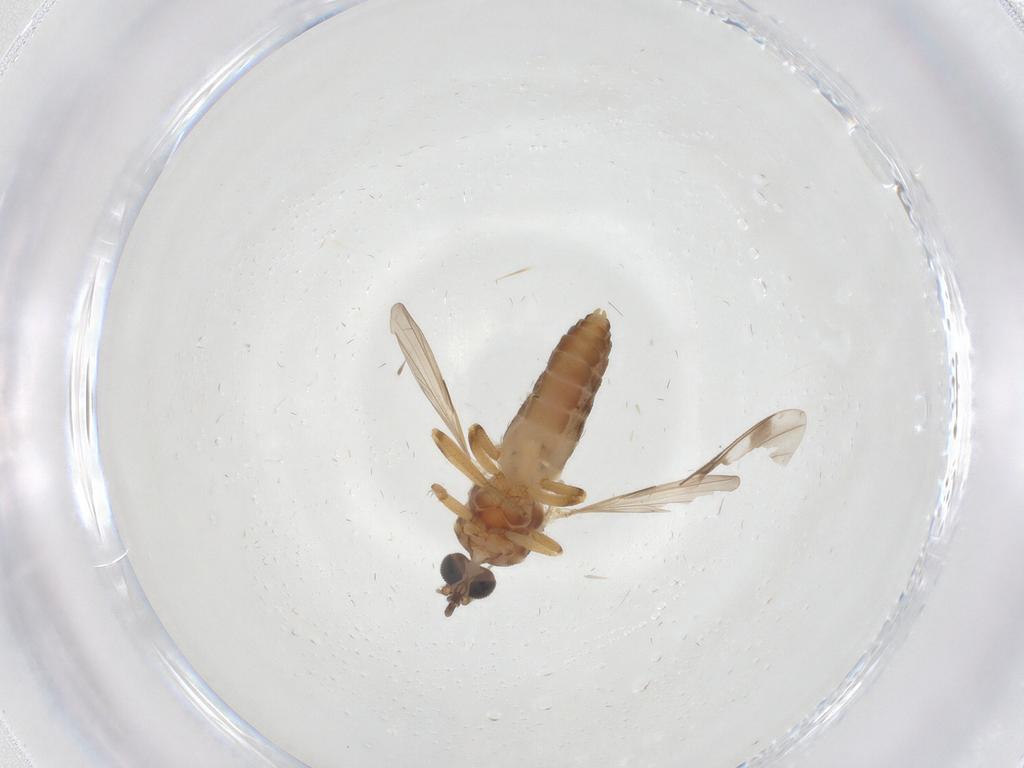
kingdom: Animalia
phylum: Arthropoda
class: Insecta
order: Diptera
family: Ceratopogonidae
